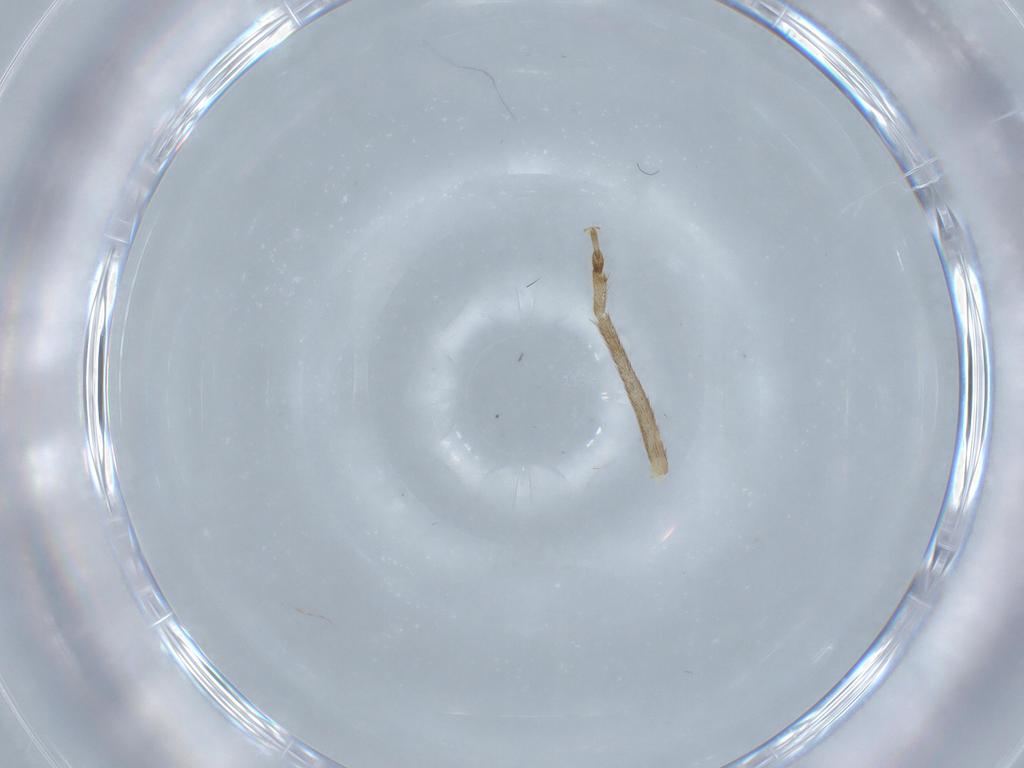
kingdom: Animalia
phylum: Arthropoda
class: Insecta
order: Orthoptera
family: Trigonidiidae
